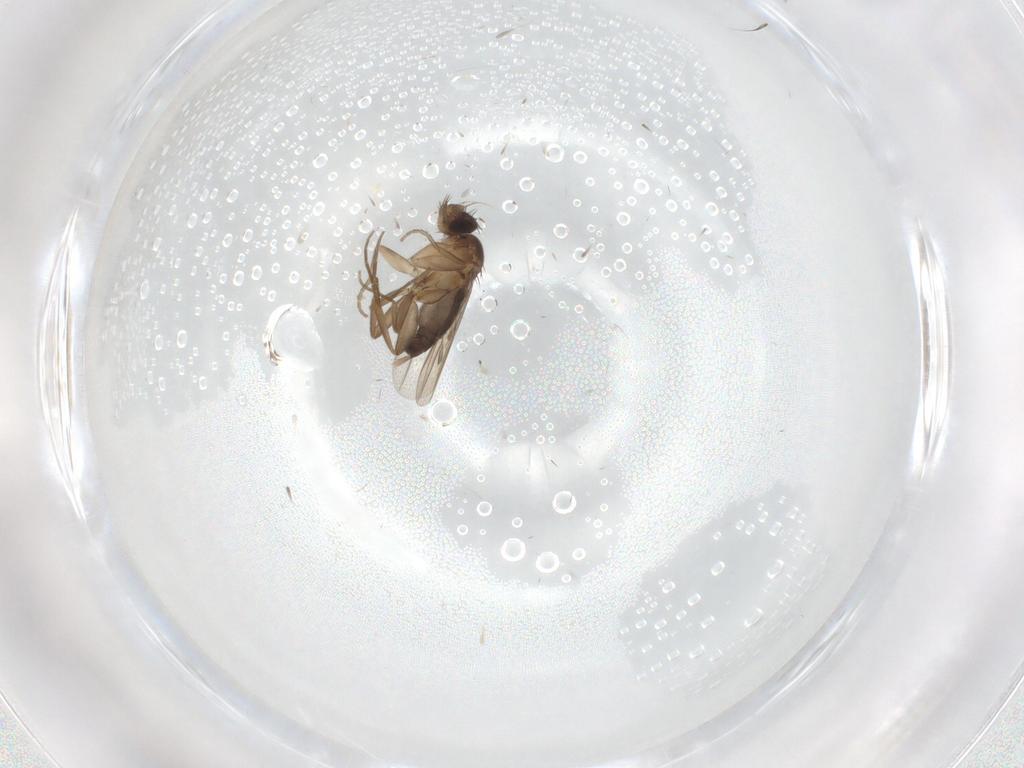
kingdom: Animalia
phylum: Arthropoda
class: Insecta
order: Diptera
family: Phoridae
